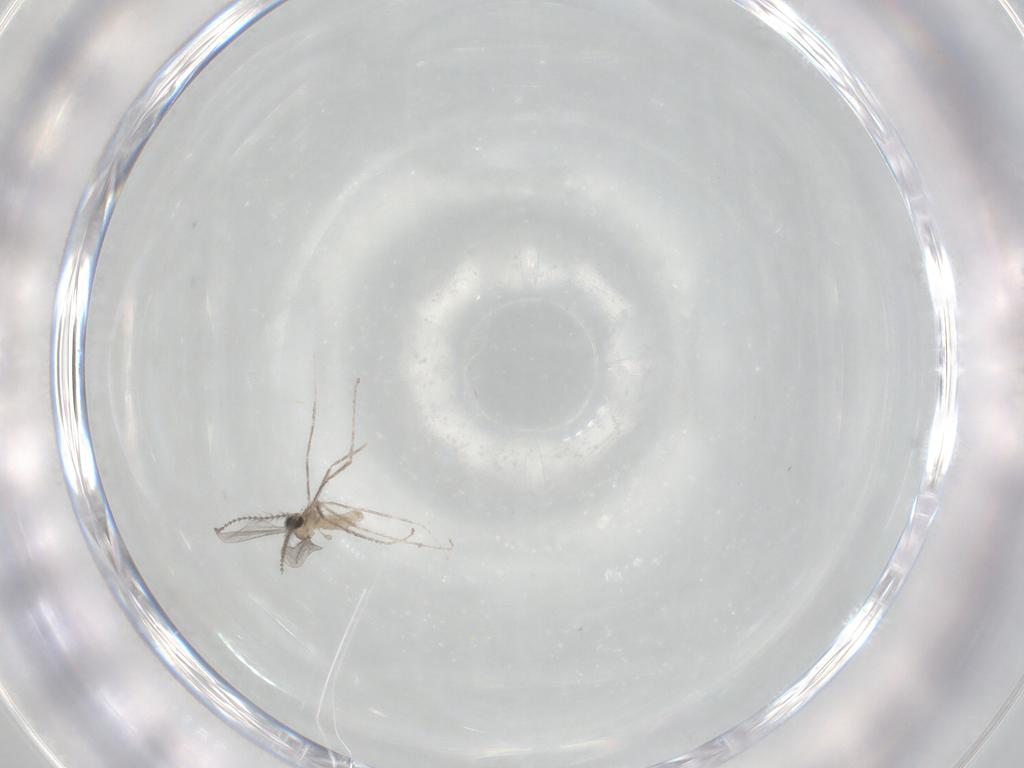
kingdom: Animalia
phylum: Arthropoda
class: Insecta
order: Diptera
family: Cecidomyiidae
